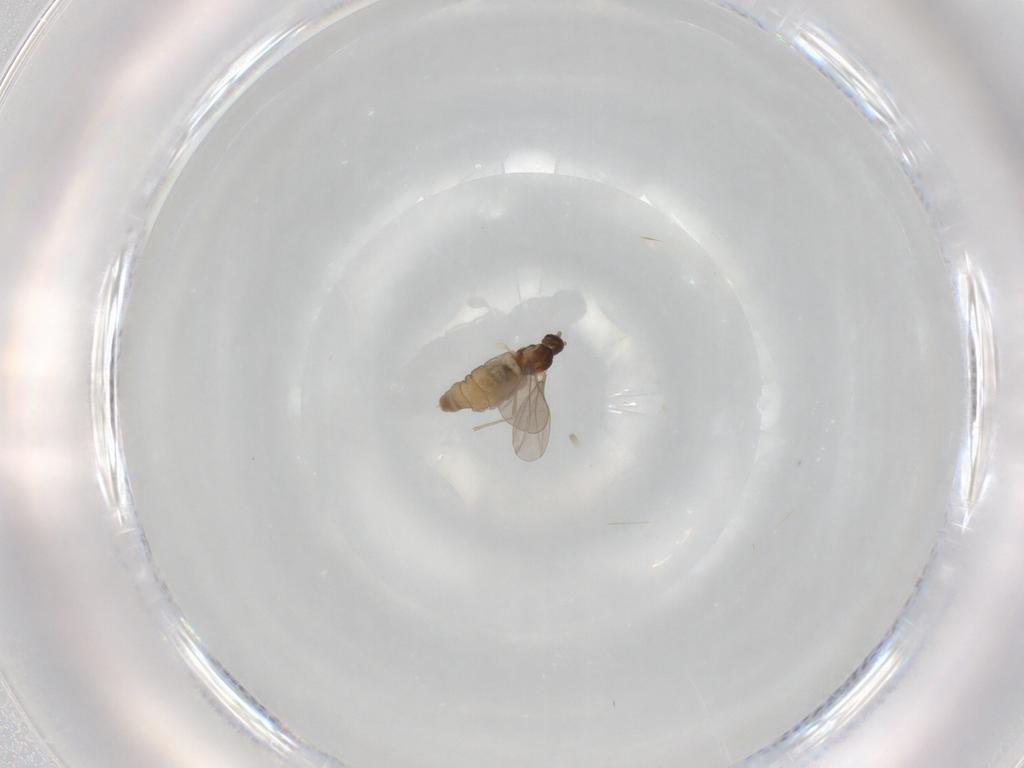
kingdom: Animalia
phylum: Arthropoda
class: Insecta
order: Diptera
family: Cecidomyiidae
